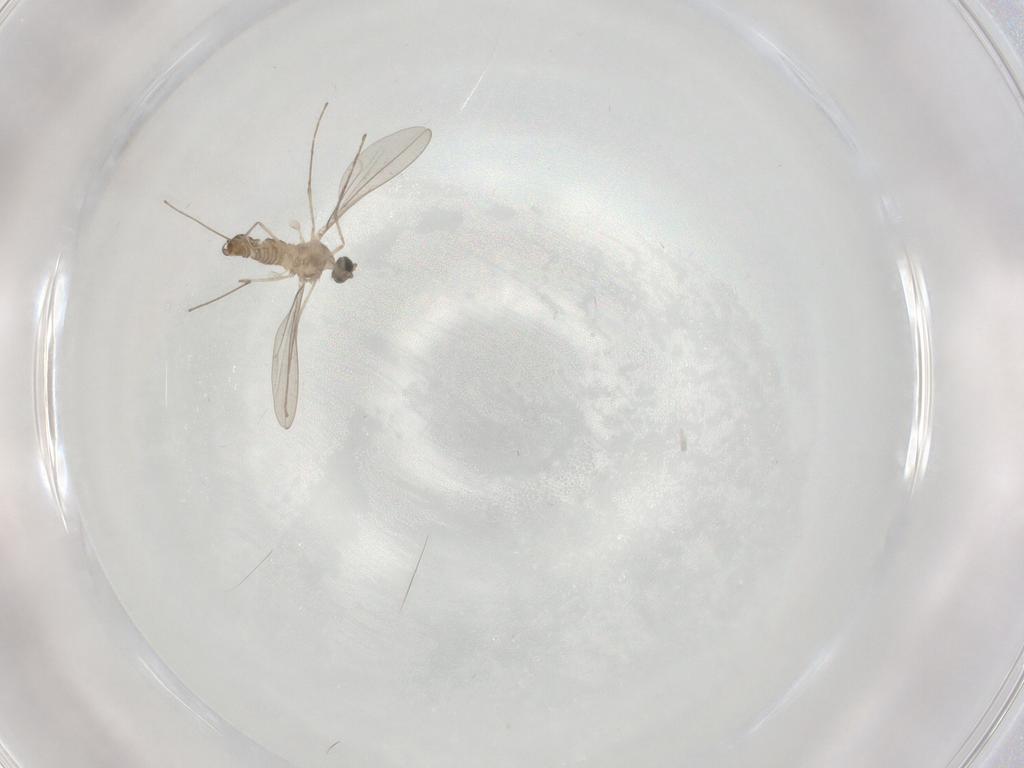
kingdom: Animalia
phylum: Arthropoda
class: Insecta
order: Diptera
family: Cecidomyiidae
